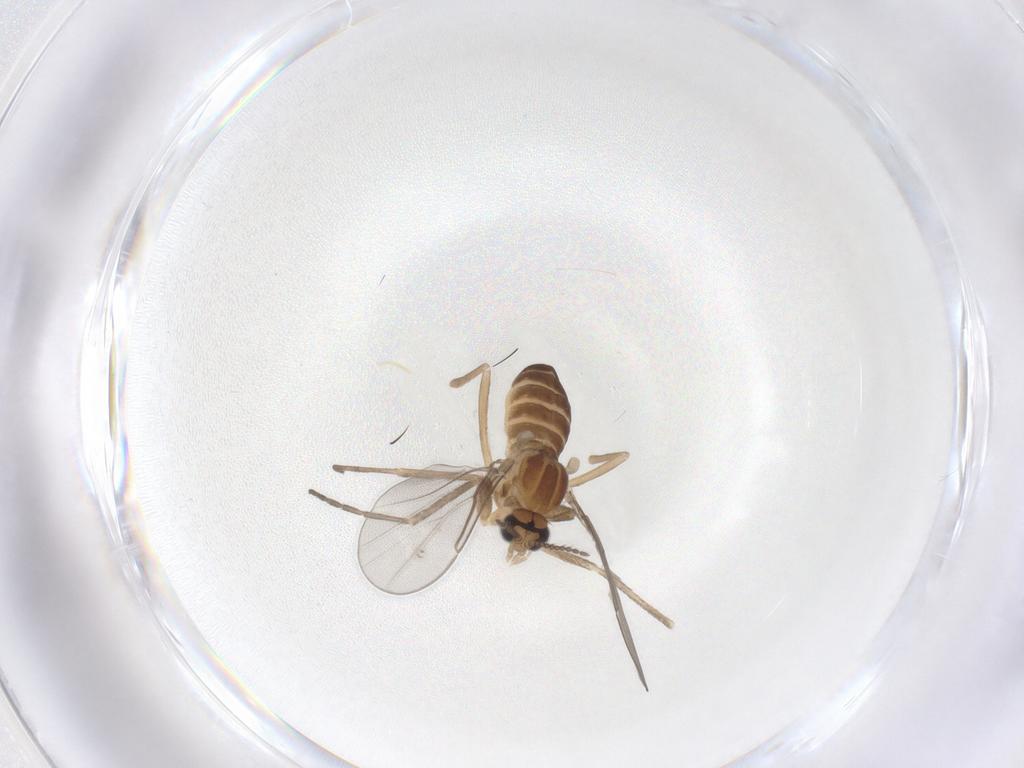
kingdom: Animalia
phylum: Arthropoda
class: Insecta
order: Diptera
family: Cecidomyiidae
